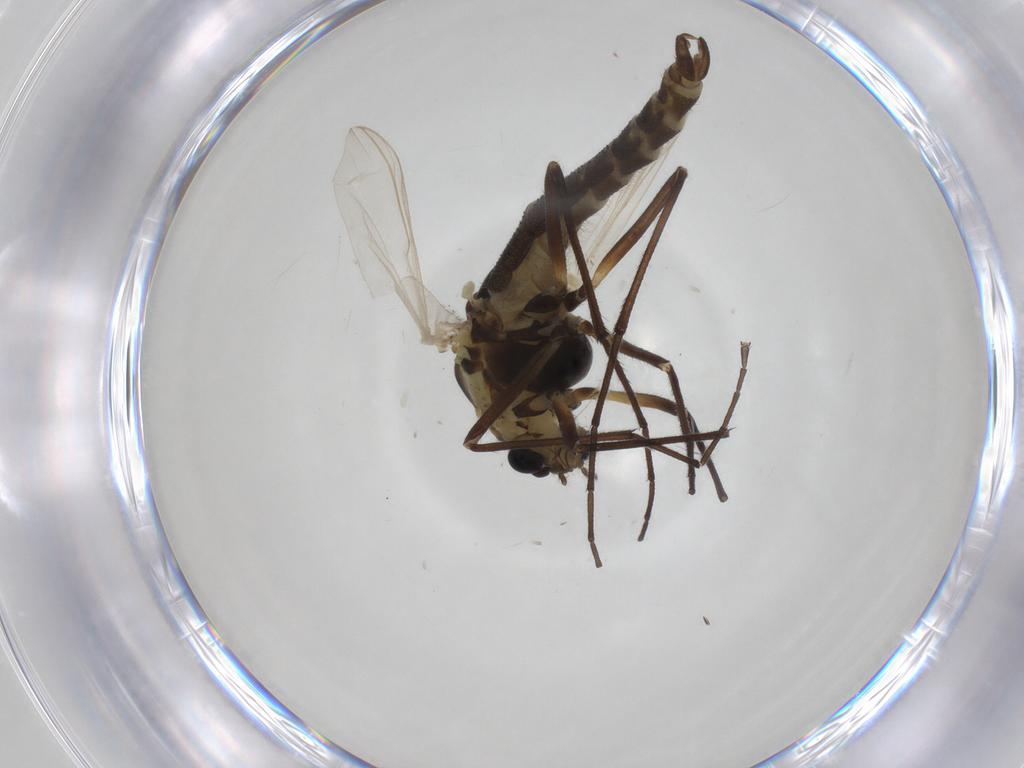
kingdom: Animalia
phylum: Arthropoda
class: Insecta
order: Diptera
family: Chironomidae
